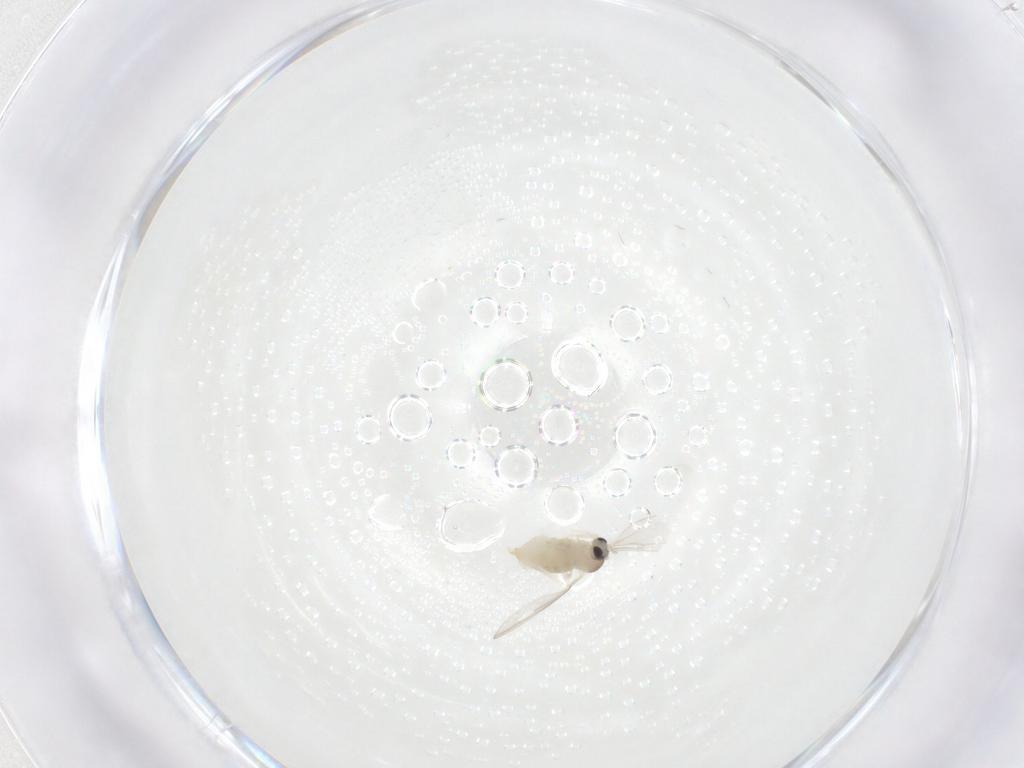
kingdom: Animalia
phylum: Arthropoda
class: Insecta
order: Diptera
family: Cecidomyiidae
